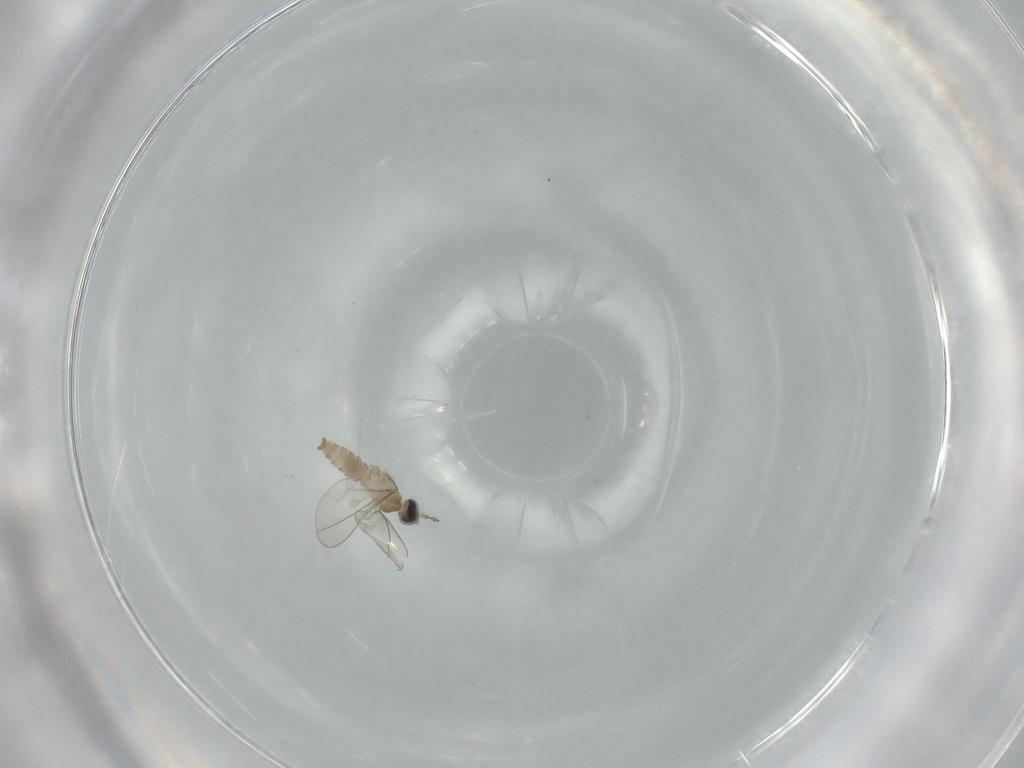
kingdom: Animalia
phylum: Arthropoda
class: Insecta
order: Diptera
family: Cecidomyiidae
